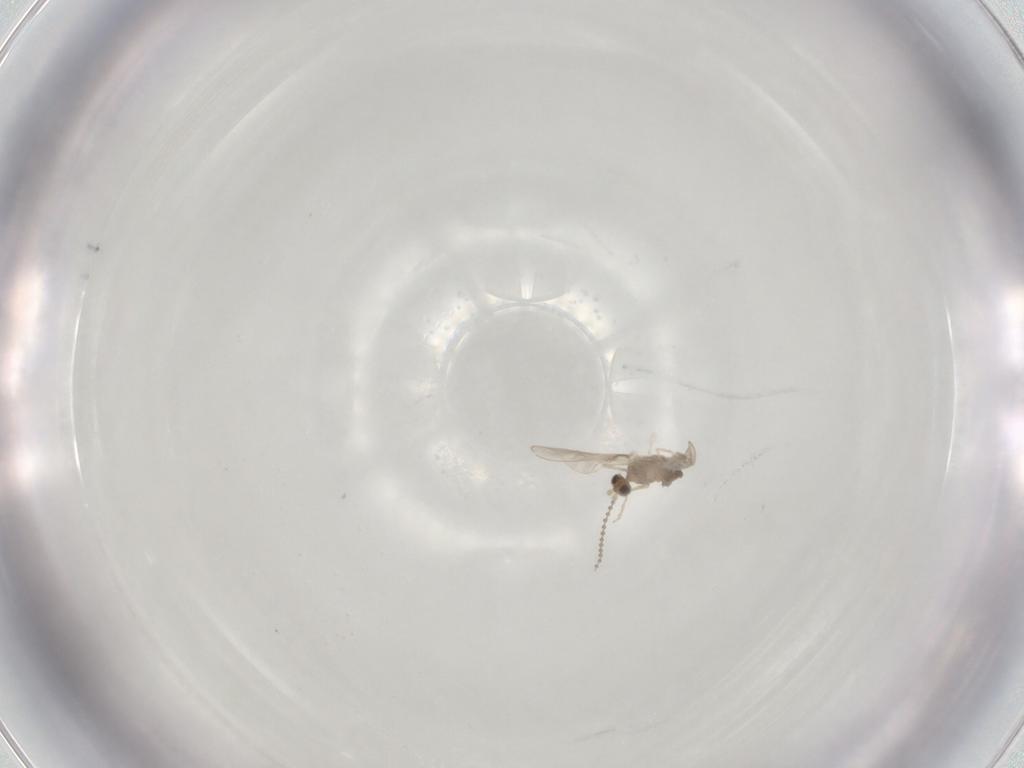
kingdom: Animalia
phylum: Arthropoda
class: Insecta
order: Diptera
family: Cecidomyiidae
